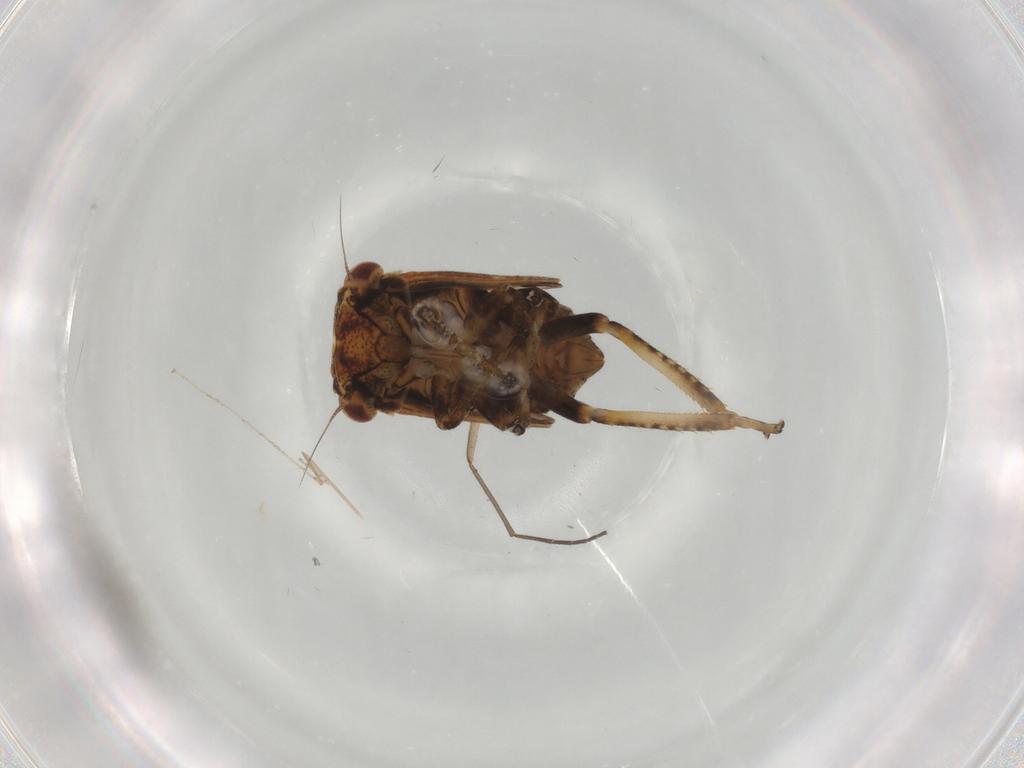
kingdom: Animalia
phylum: Arthropoda
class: Insecta
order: Hemiptera
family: Cicadellidae
